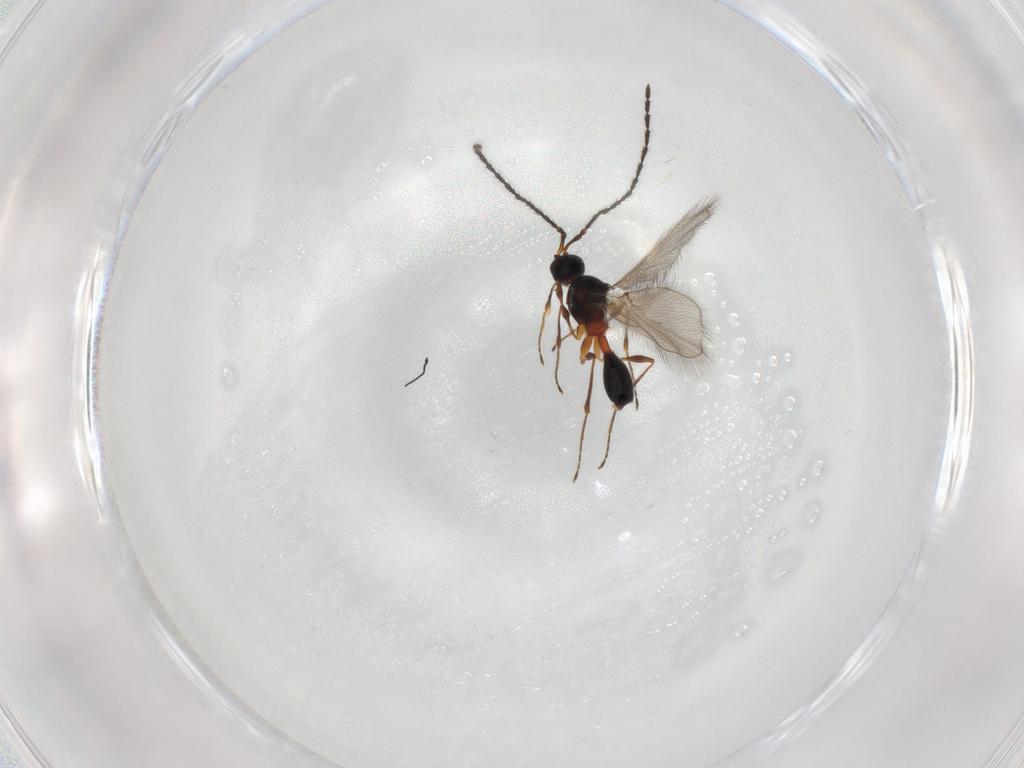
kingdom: Animalia
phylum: Arthropoda
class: Insecta
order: Hymenoptera
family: Diapriidae
